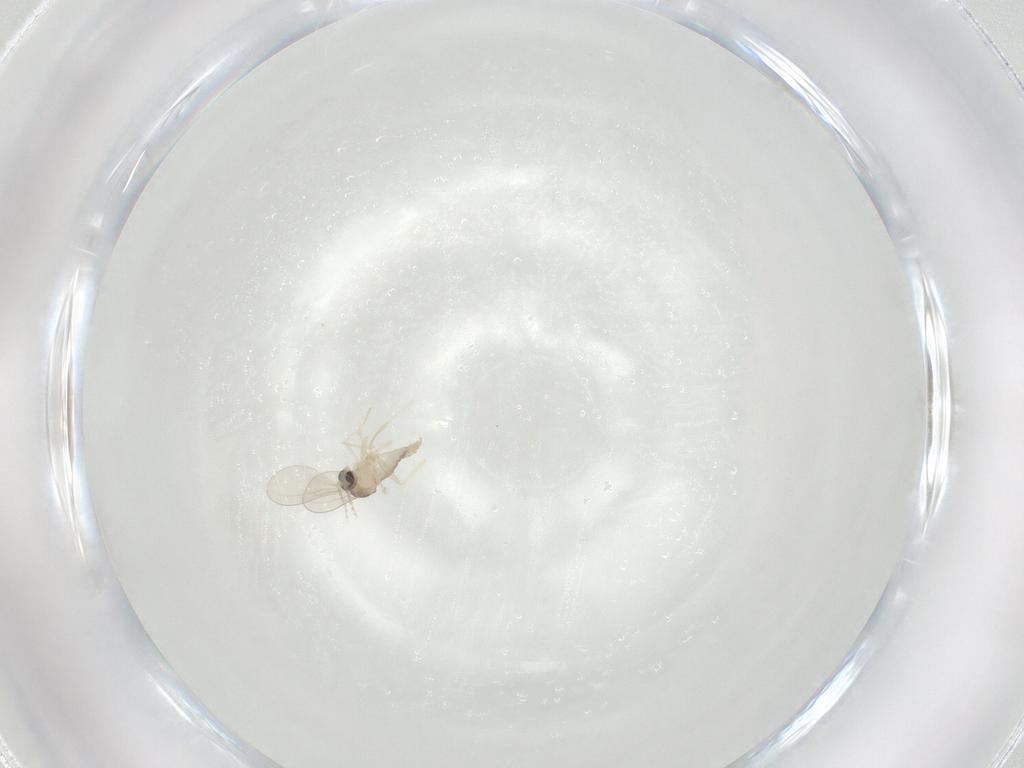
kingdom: Animalia
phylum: Arthropoda
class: Insecta
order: Diptera
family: Cecidomyiidae
